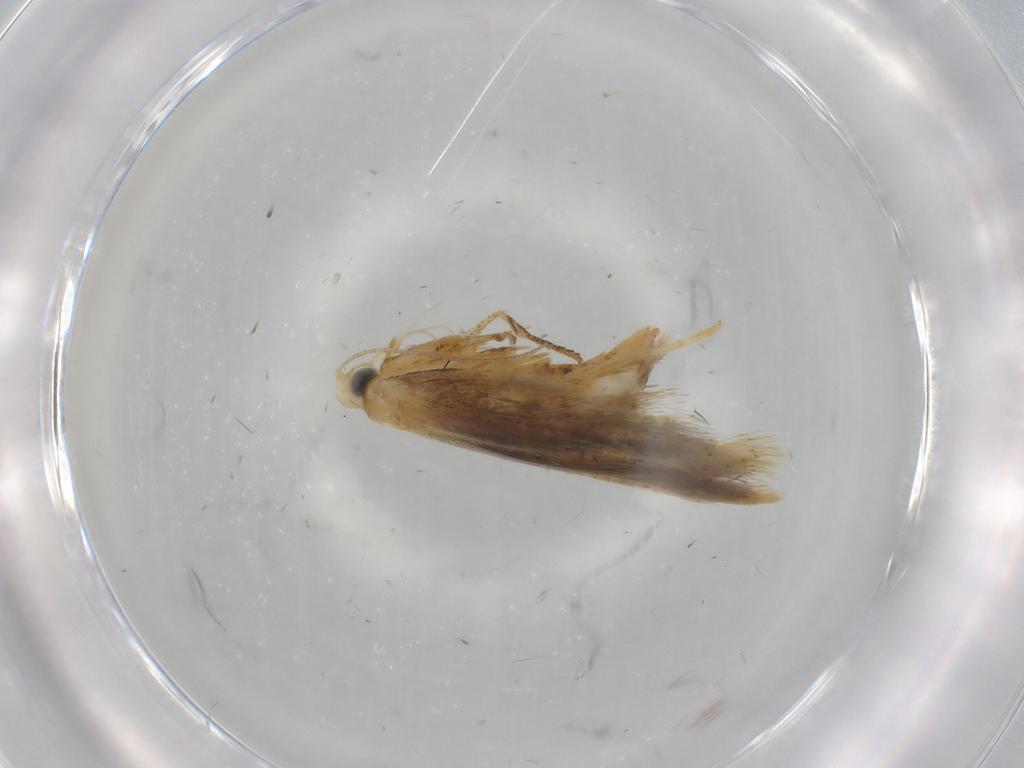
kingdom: Animalia
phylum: Arthropoda
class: Insecta
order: Lepidoptera
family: Tischeriidae
